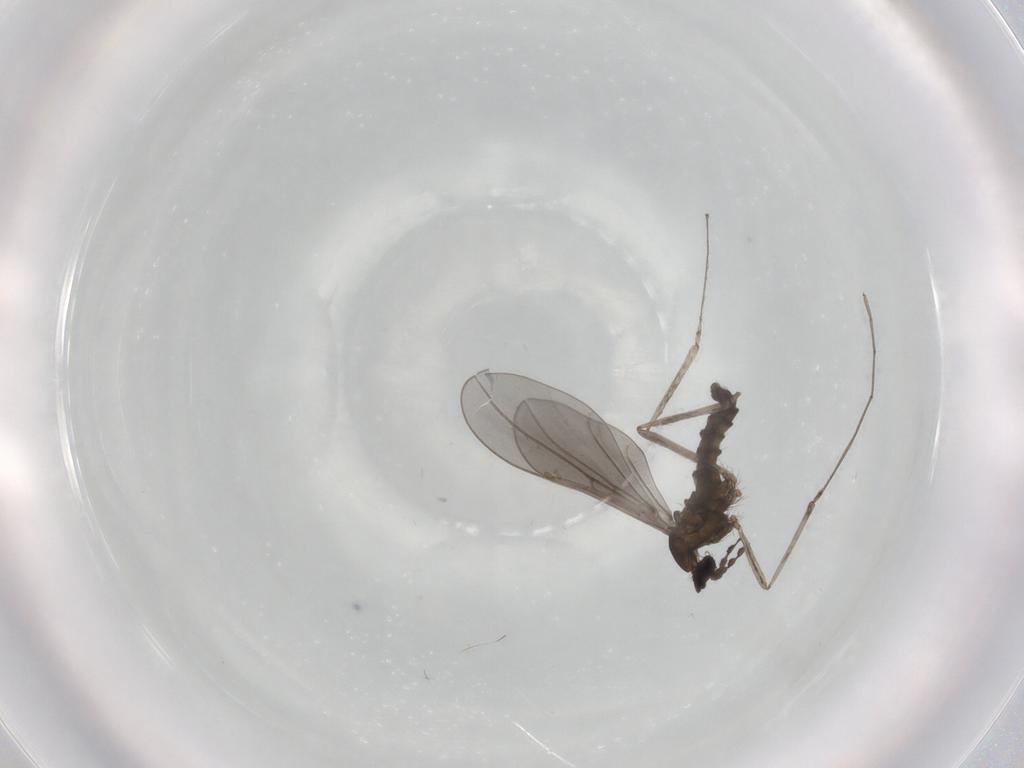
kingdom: Animalia
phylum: Arthropoda
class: Insecta
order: Diptera
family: Cecidomyiidae
